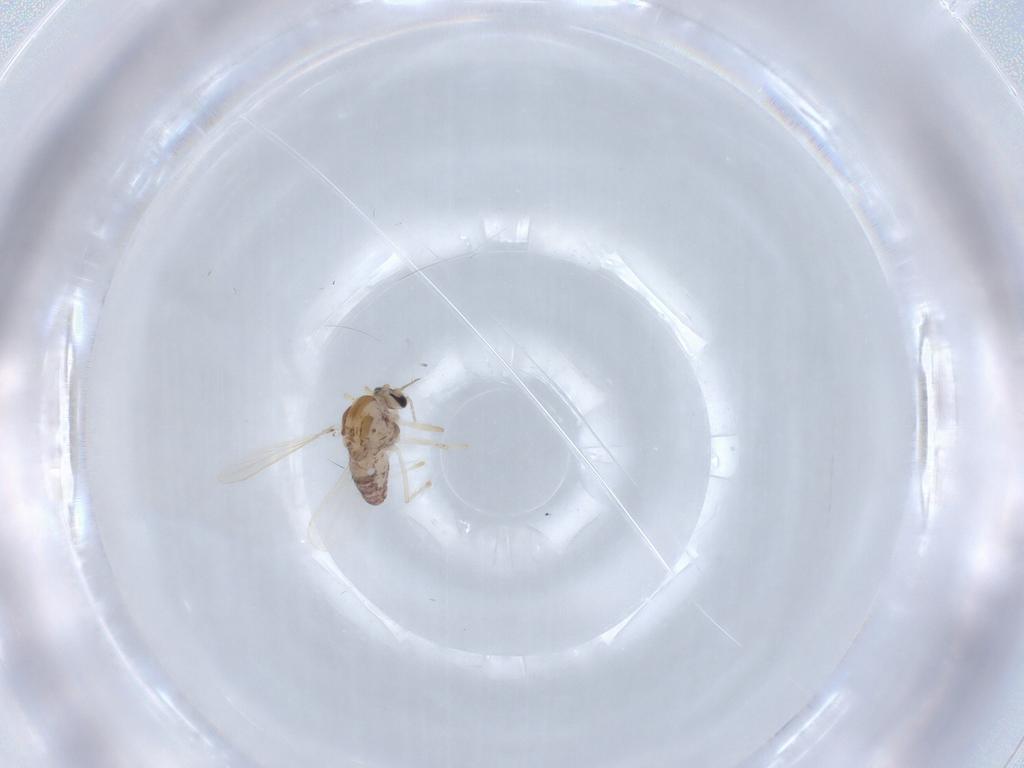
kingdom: Animalia
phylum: Arthropoda
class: Insecta
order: Diptera
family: Chironomidae
